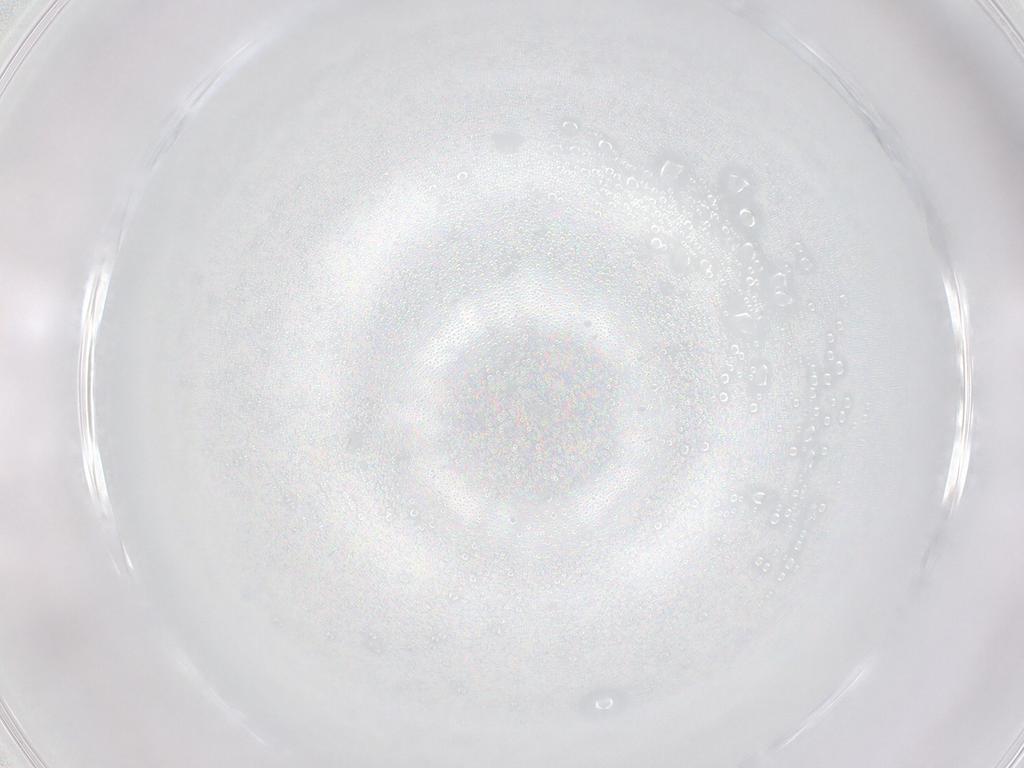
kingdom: Animalia
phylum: Arthropoda
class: Insecta
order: Diptera
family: Cecidomyiidae
